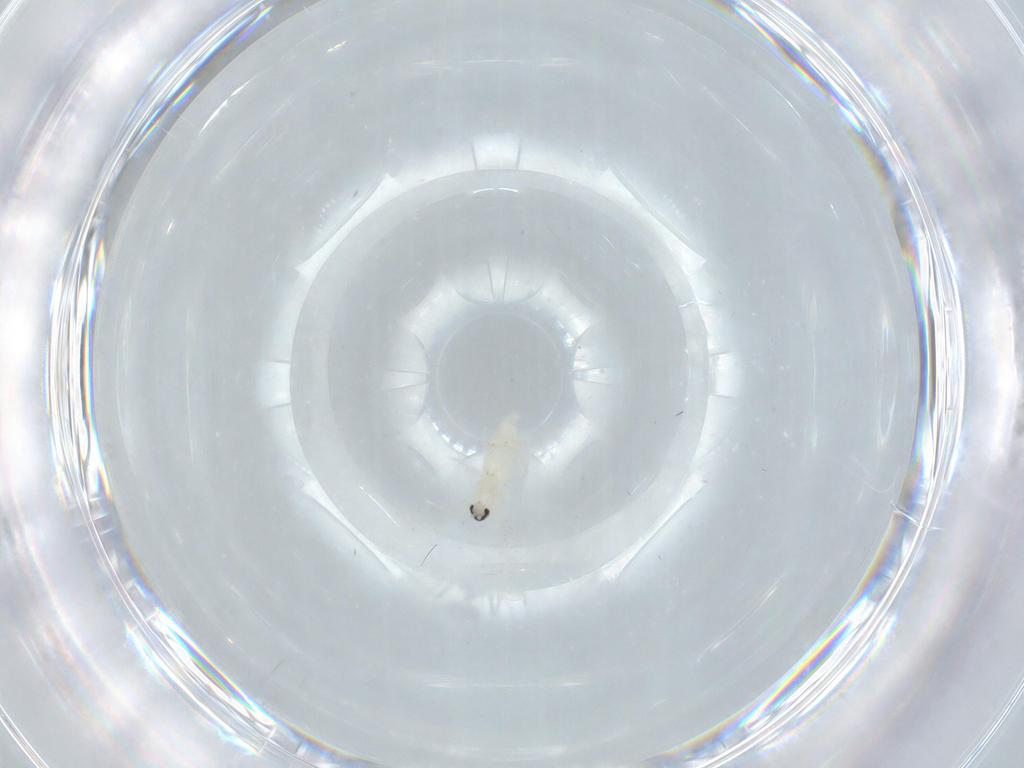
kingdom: Animalia
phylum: Arthropoda
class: Insecta
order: Diptera
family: Cecidomyiidae
